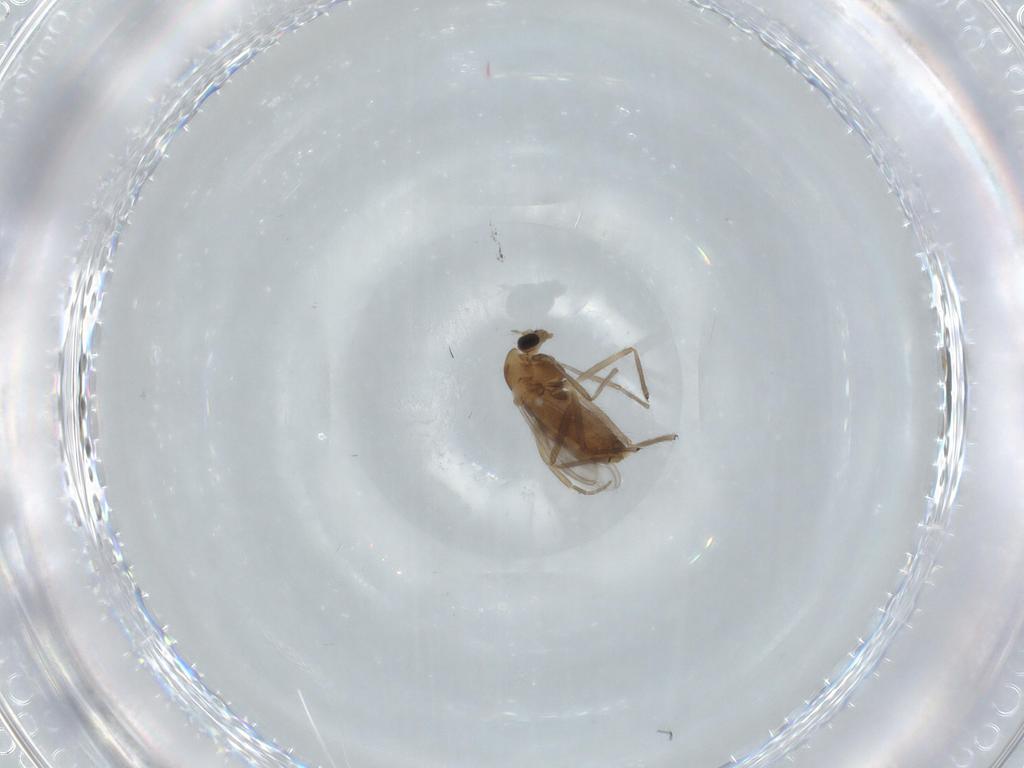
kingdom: Animalia
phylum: Arthropoda
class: Insecta
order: Diptera
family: Chironomidae
